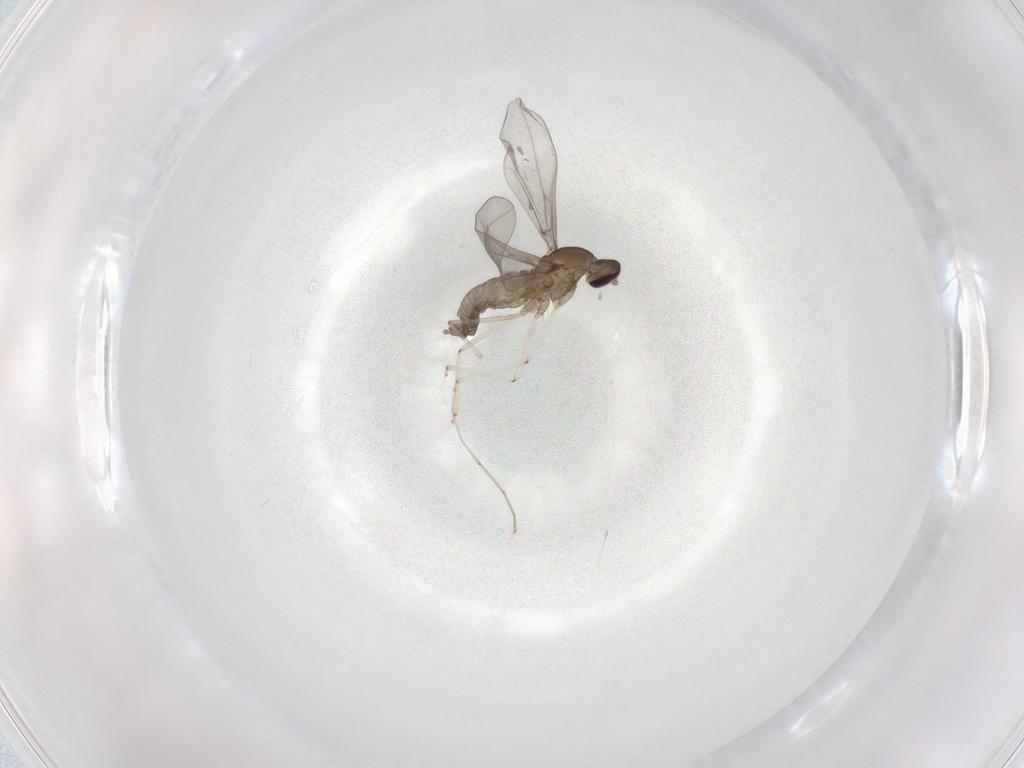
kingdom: Animalia
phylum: Arthropoda
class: Insecta
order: Diptera
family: Sciaridae
